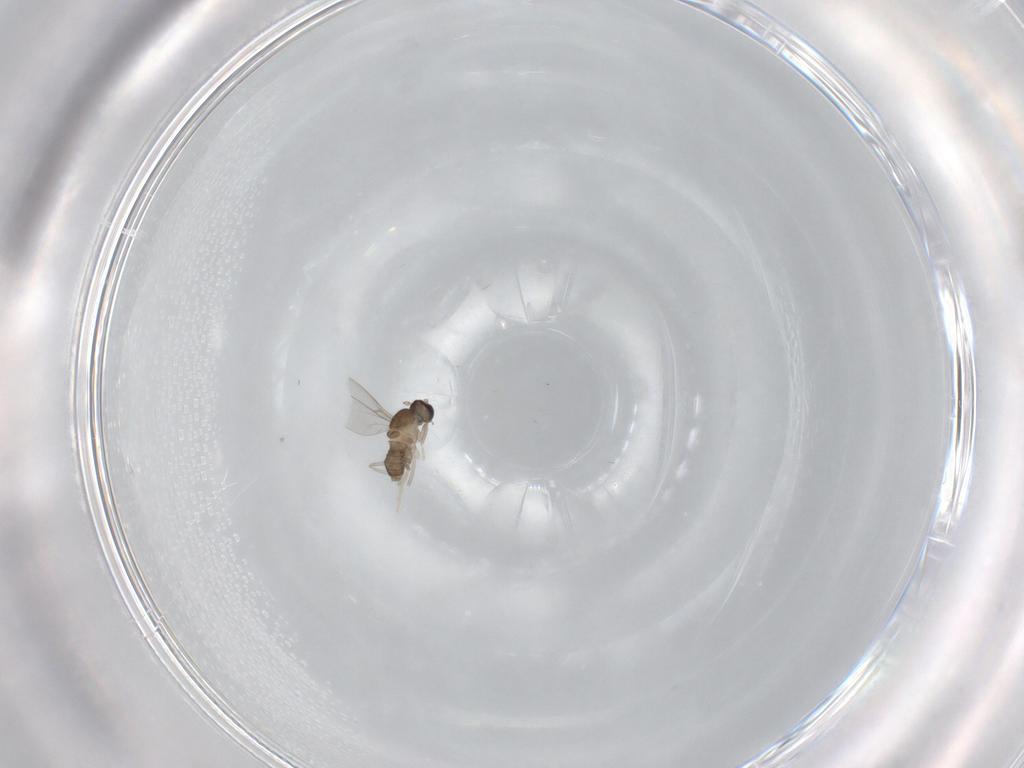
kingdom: Animalia
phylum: Arthropoda
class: Insecta
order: Diptera
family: Cecidomyiidae
